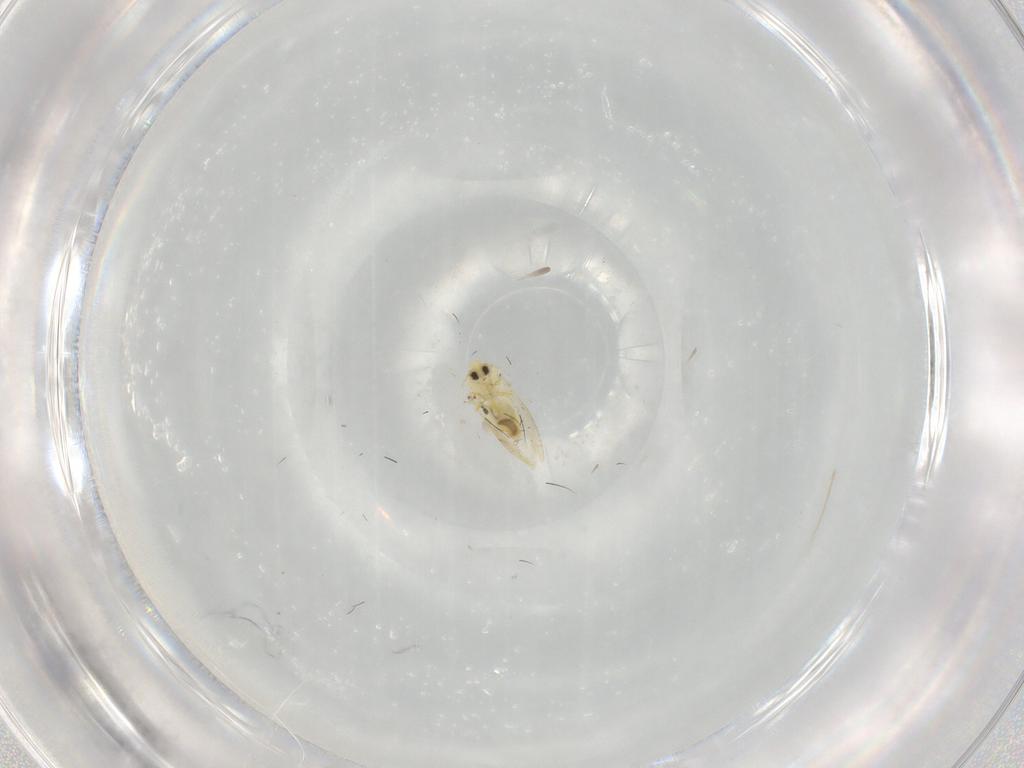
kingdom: Animalia
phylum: Arthropoda
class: Insecta
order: Hemiptera
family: Aleyrodidae
